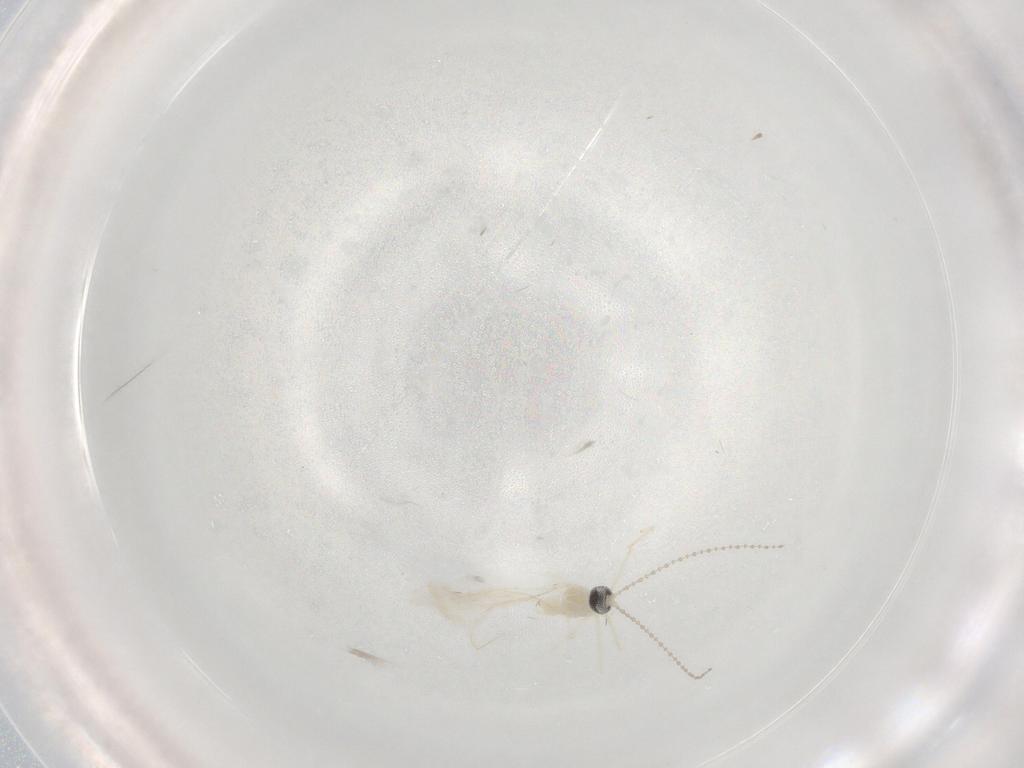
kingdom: Animalia
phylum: Arthropoda
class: Insecta
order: Diptera
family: Cecidomyiidae
